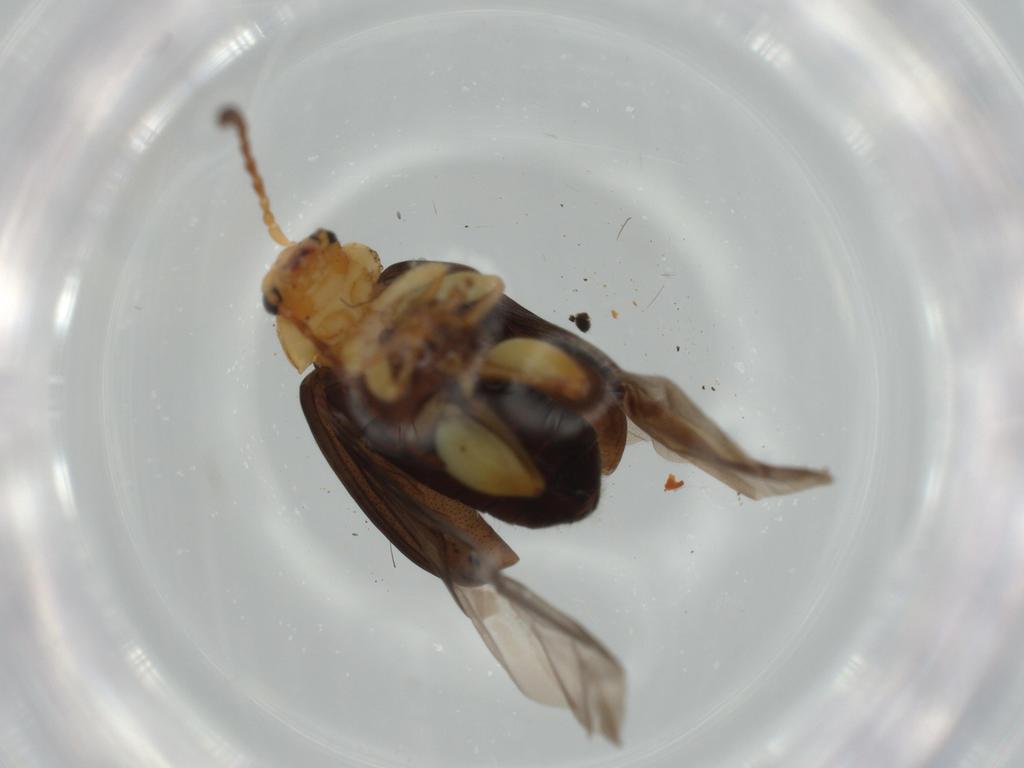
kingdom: Animalia
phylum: Arthropoda
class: Insecta
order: Coleoptera
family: Chrysomelidae
